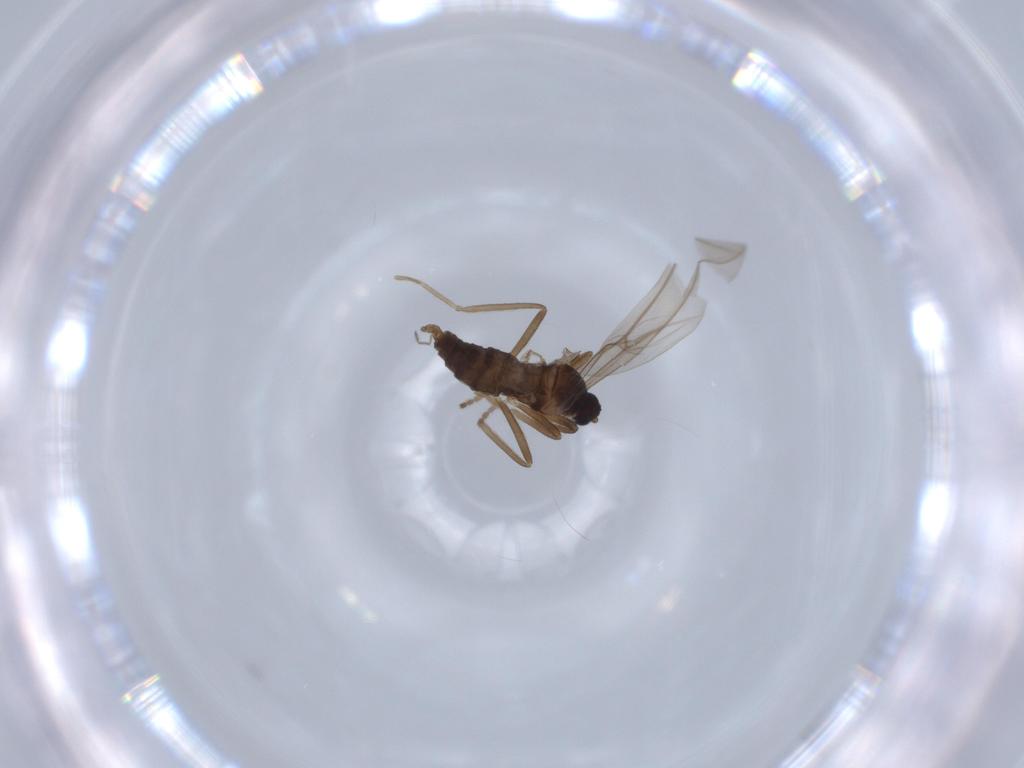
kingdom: Animalia
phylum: Arthropoda
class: Insecta
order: Diptera
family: Cecidomyiidae
